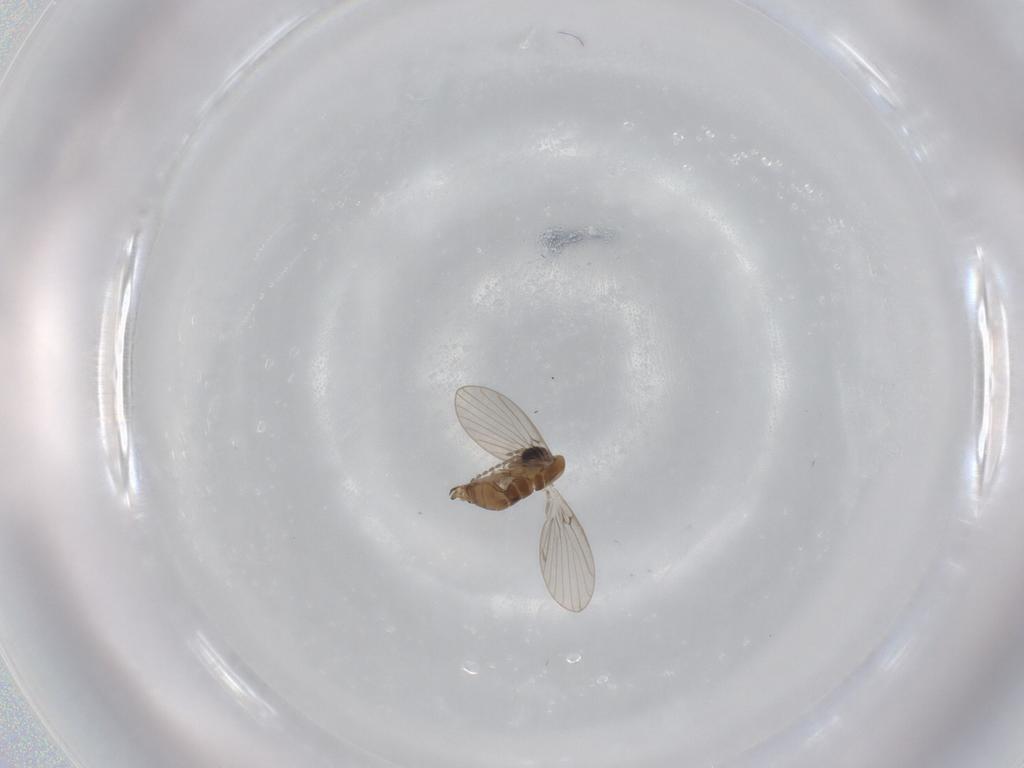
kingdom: Animalia
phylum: Arthropoda
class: Insecta
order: Diptera
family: Psychodidae
